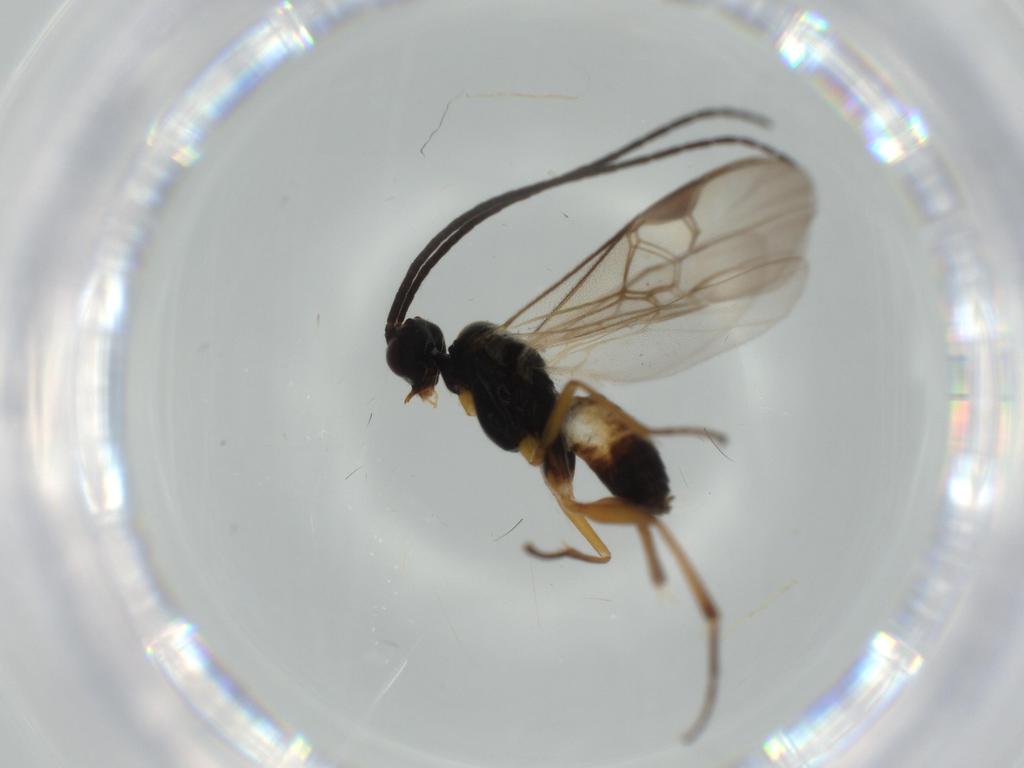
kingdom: Animalia
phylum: Arthropoda
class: Insecta
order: Hymenoptera
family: Braconidae
